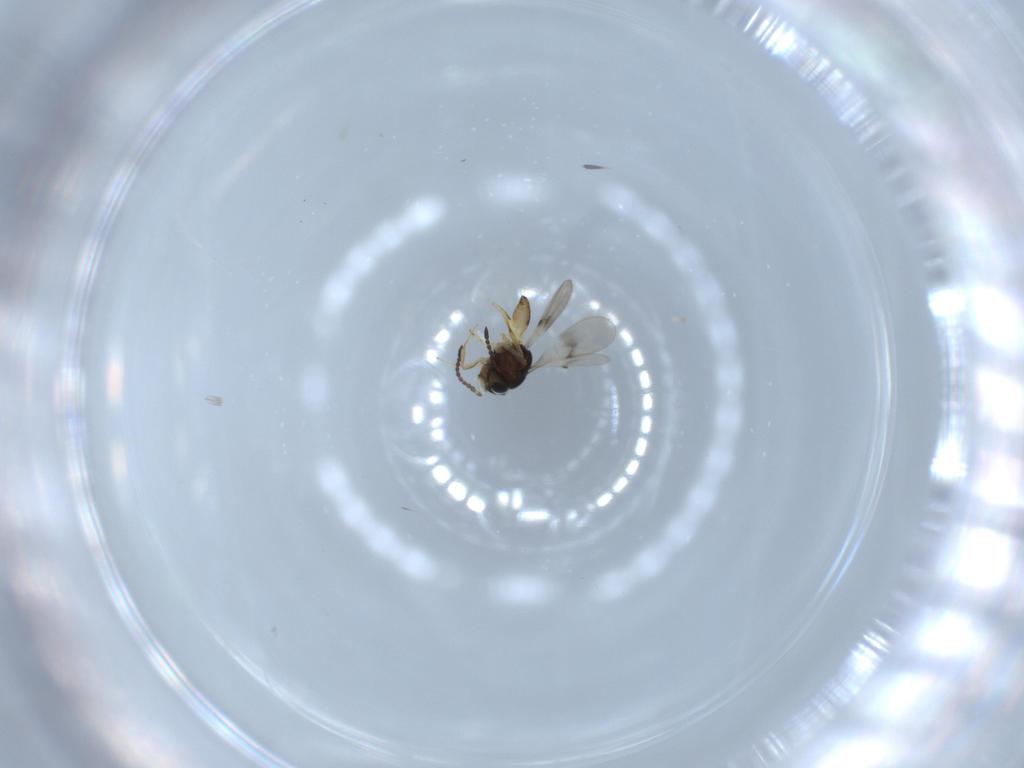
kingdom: Animalia
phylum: Arthropoda
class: Insecta
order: Hymenoptera
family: Scelionidae
